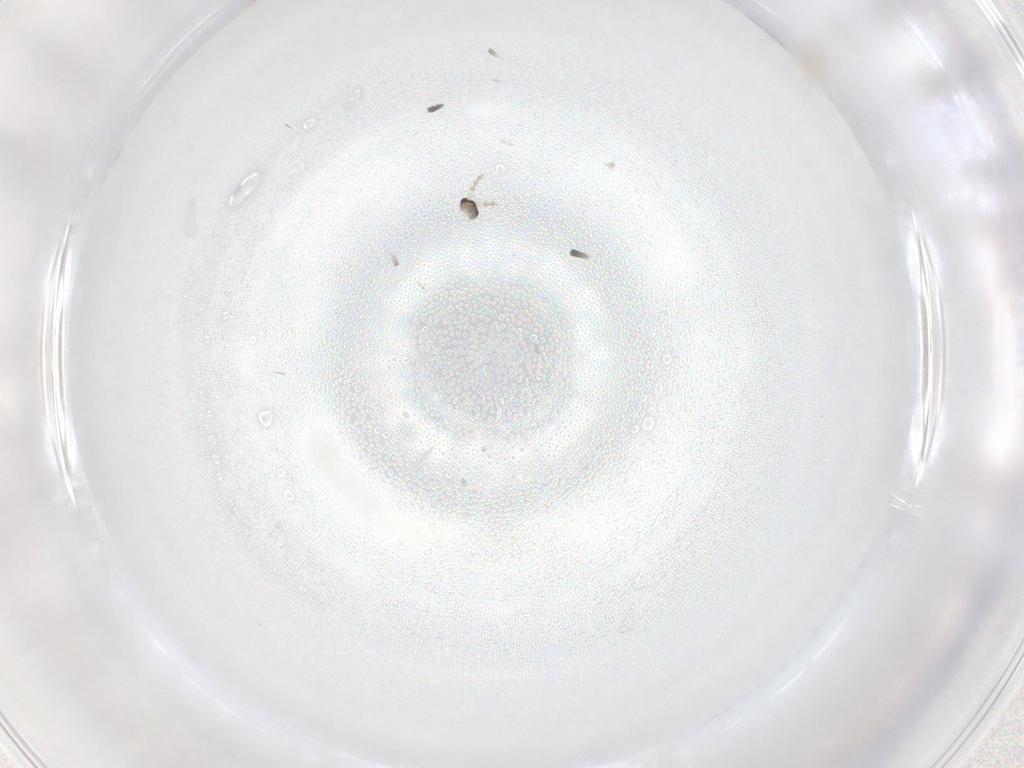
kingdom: Animalia
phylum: Arthropoda
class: Insecta
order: Diptera
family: Cecidomyiidae
